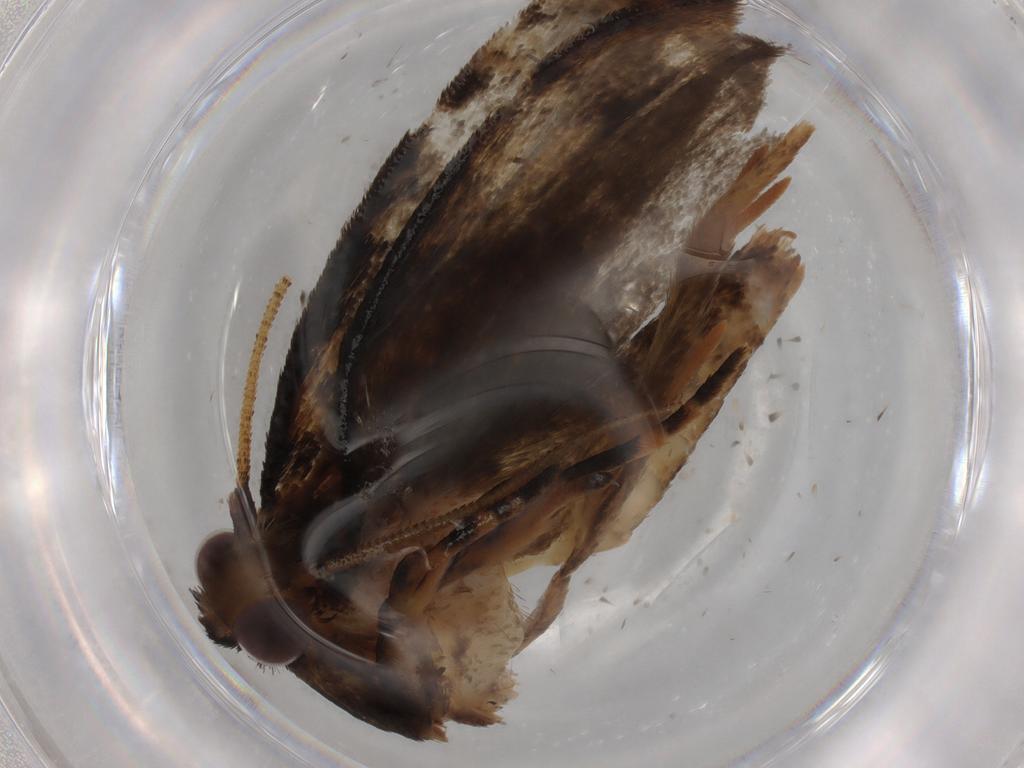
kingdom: Animalia
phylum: Arthropoda
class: Insecta
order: Lepidoptera
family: Tineidae
